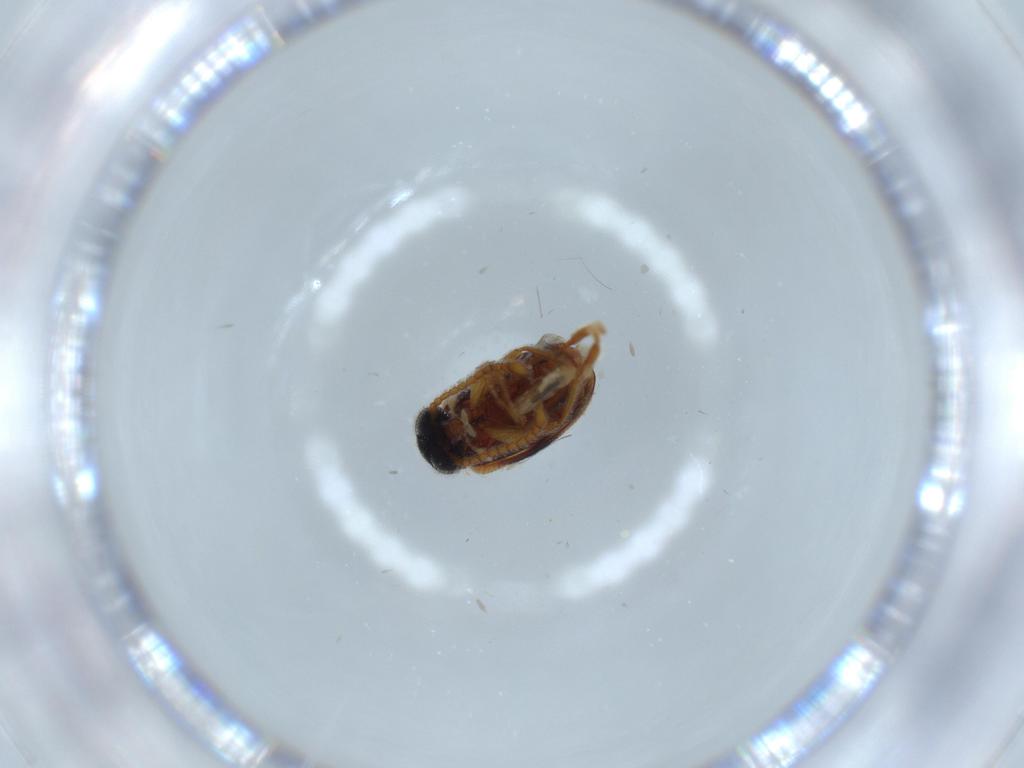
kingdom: Animalia
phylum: Arthropoda
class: Insecta
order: Coleoptera
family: Aderidae
